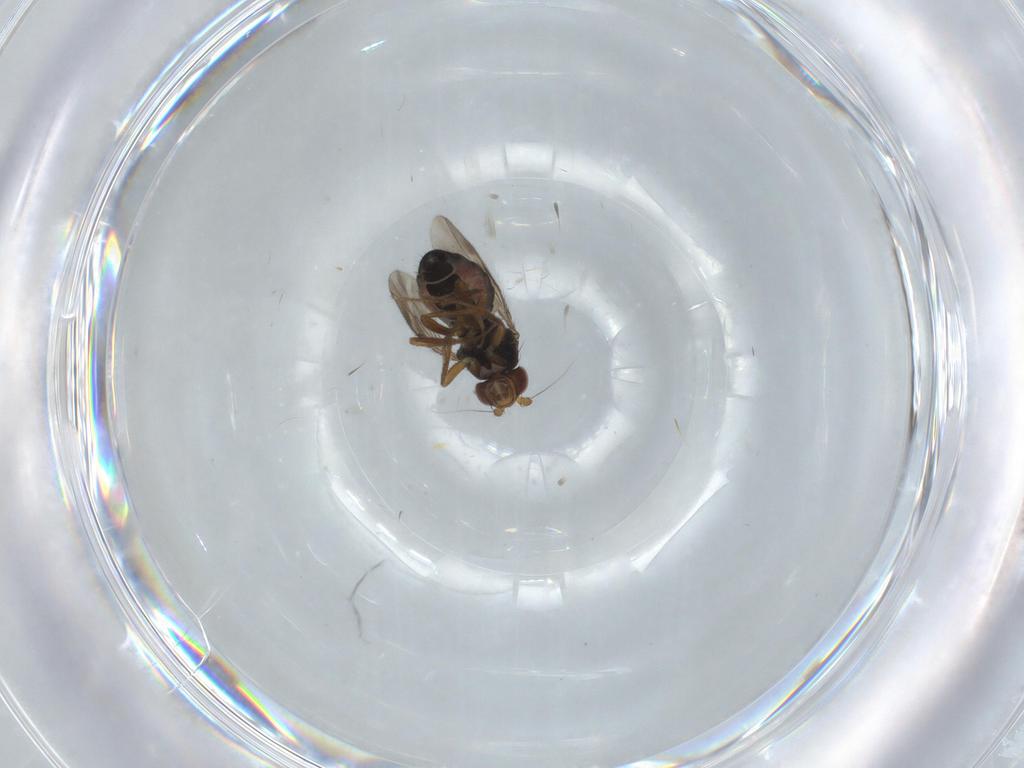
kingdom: Animalia
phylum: Arthropoda
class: Insecta
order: Diptera
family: Sphaeroceridae
